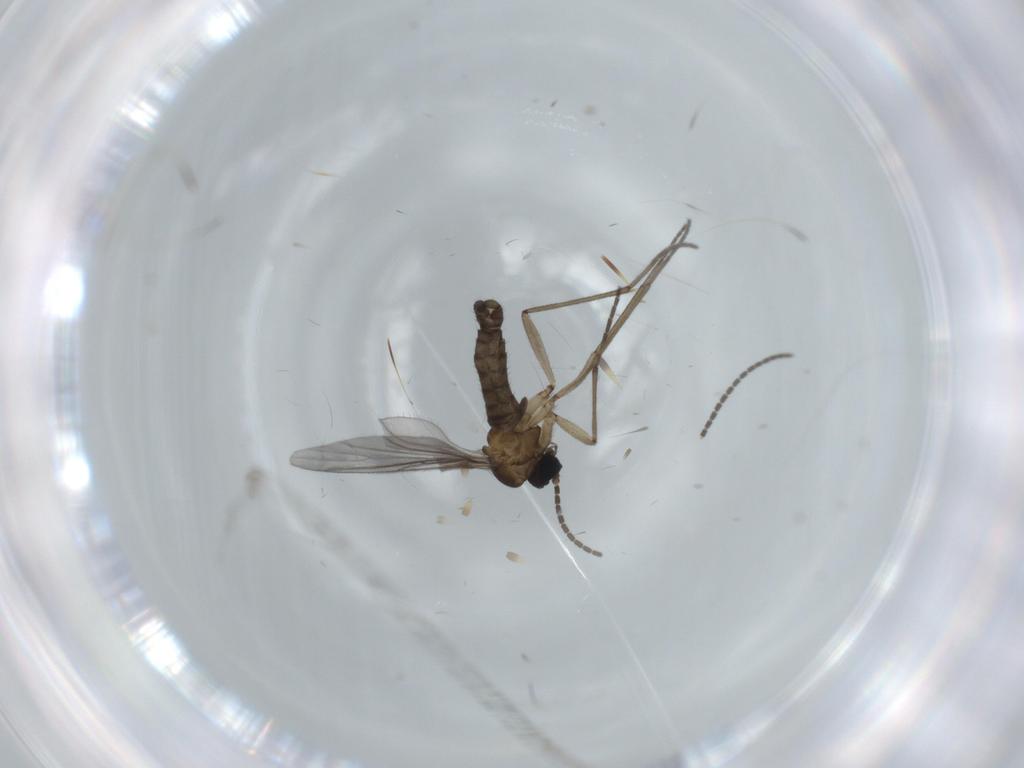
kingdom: Animalia
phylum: Arthropoda
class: Insecta
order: Diptera
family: Sciaridae
